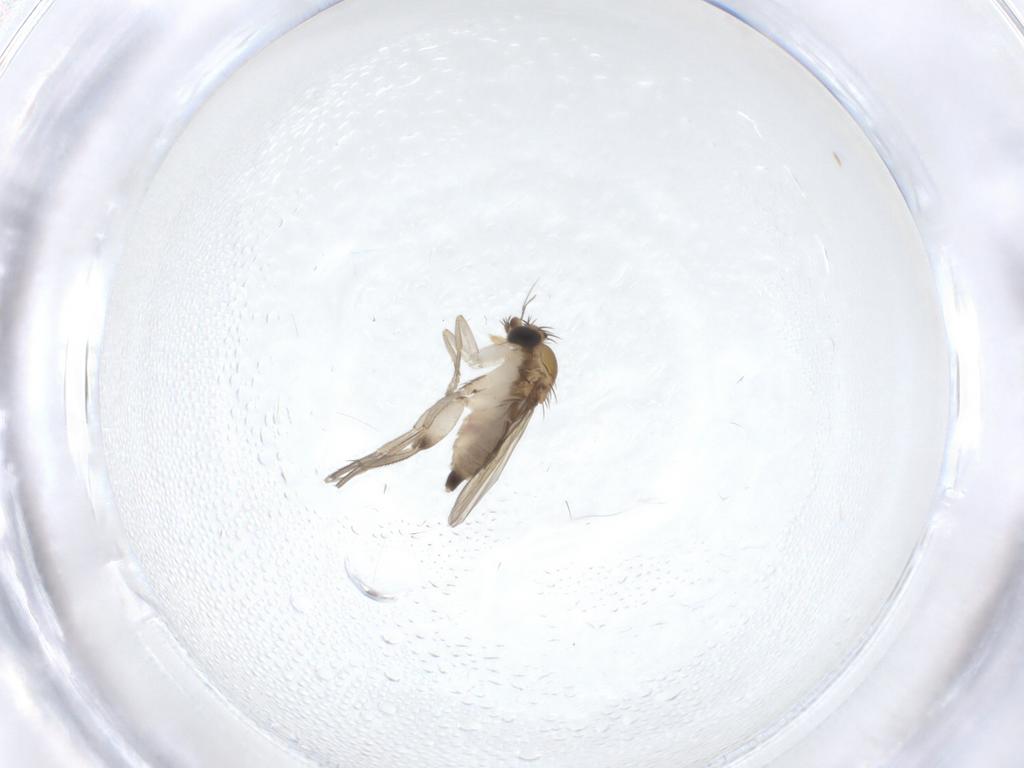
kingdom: Animalia
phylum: Arthropoda
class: Insecta
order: Diptera
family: Phoridae
